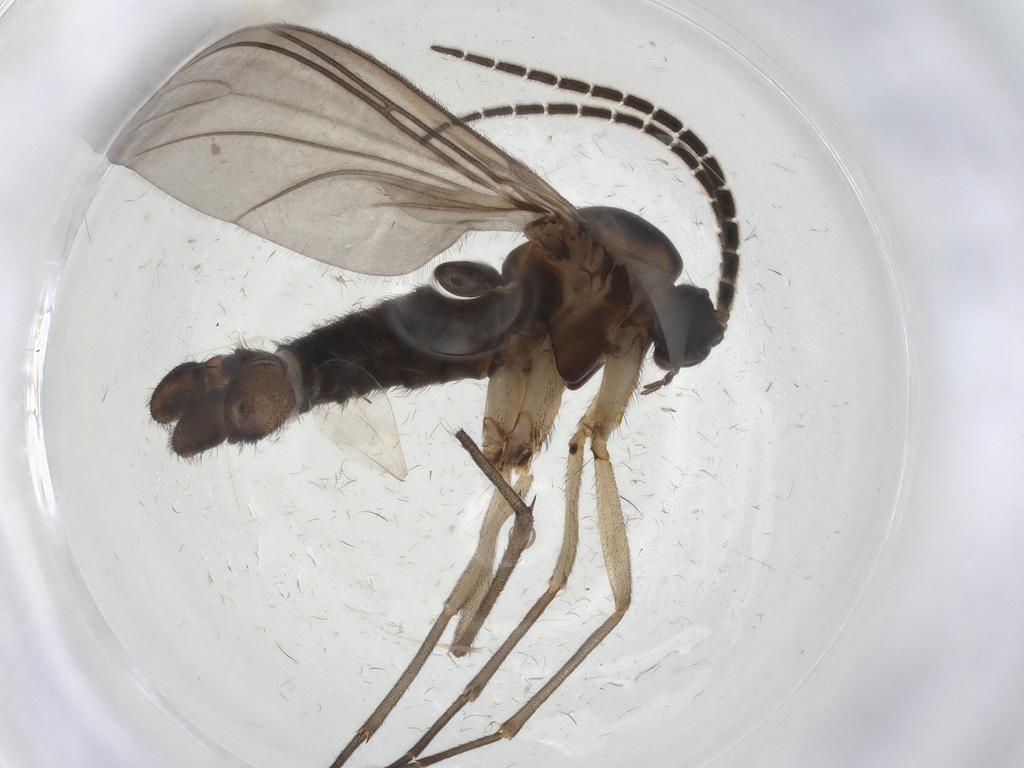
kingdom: Animalia
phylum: Arthropoda
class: Insecta
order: Diptera
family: Sciaridae
